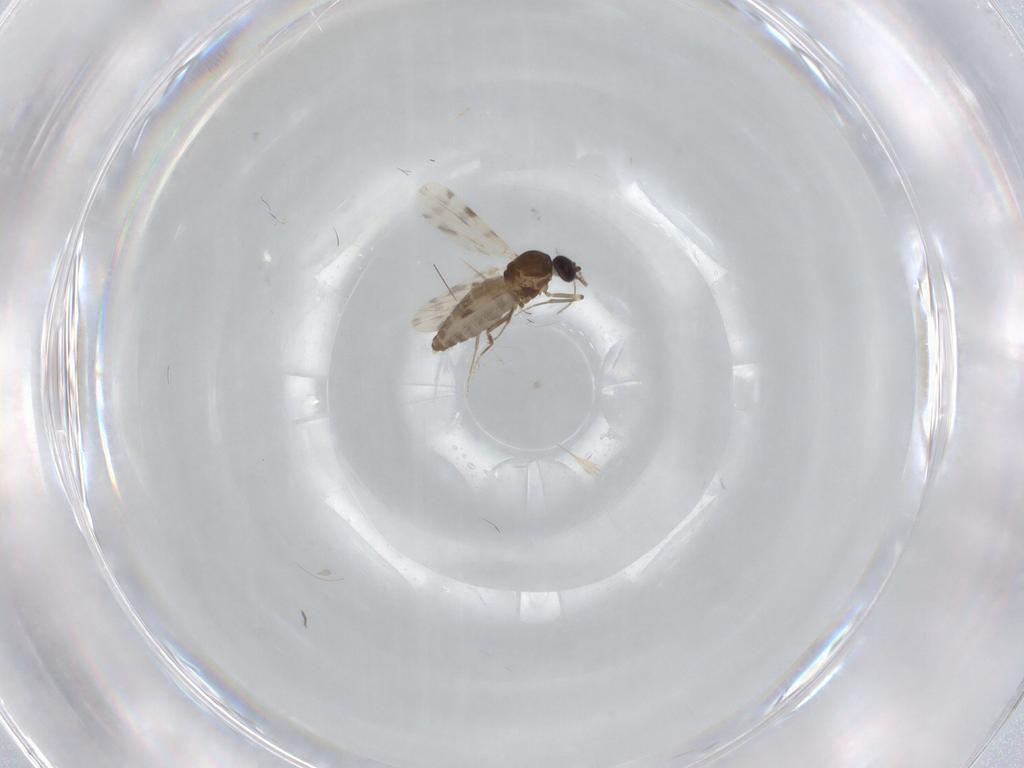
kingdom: Animalia
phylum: Arthropoda
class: Insecta
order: Diptera
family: Ceratopogonidae
